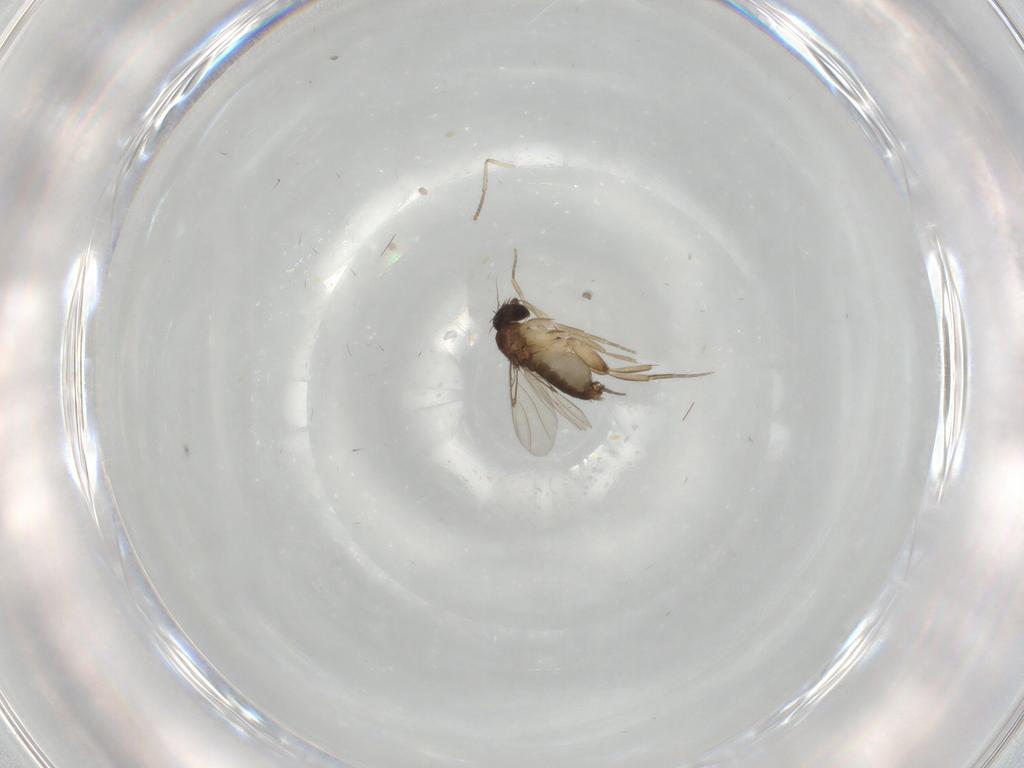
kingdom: Animalia
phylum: Arthropoda
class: Insecta
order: Diptera
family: Phoridae
